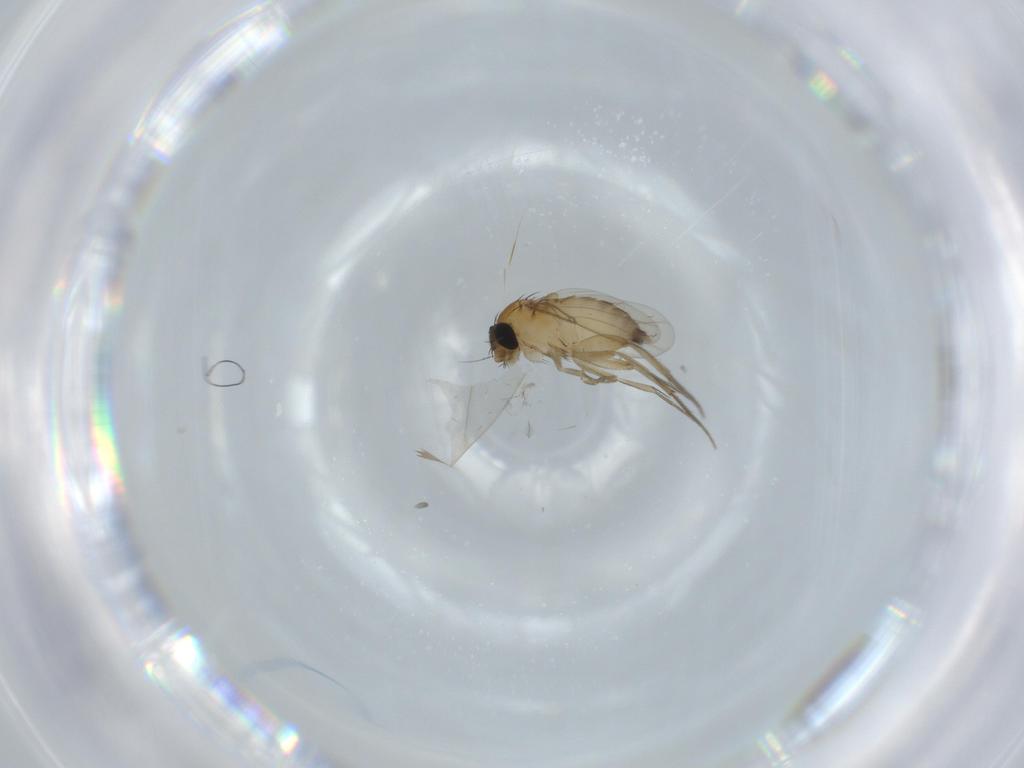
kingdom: Animalia
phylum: Arthropoda
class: Insecta
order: Diptera
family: Phoridae
